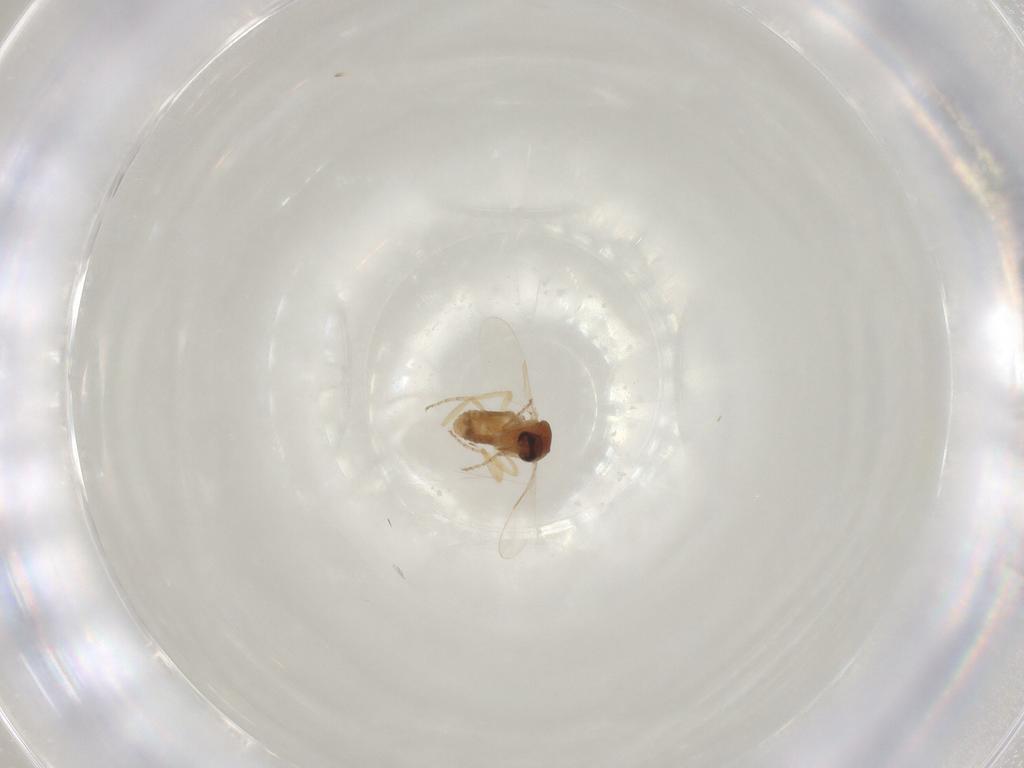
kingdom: Animalia
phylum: Arthropoda
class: Insecta
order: Diptera
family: Ceratopogonidae
